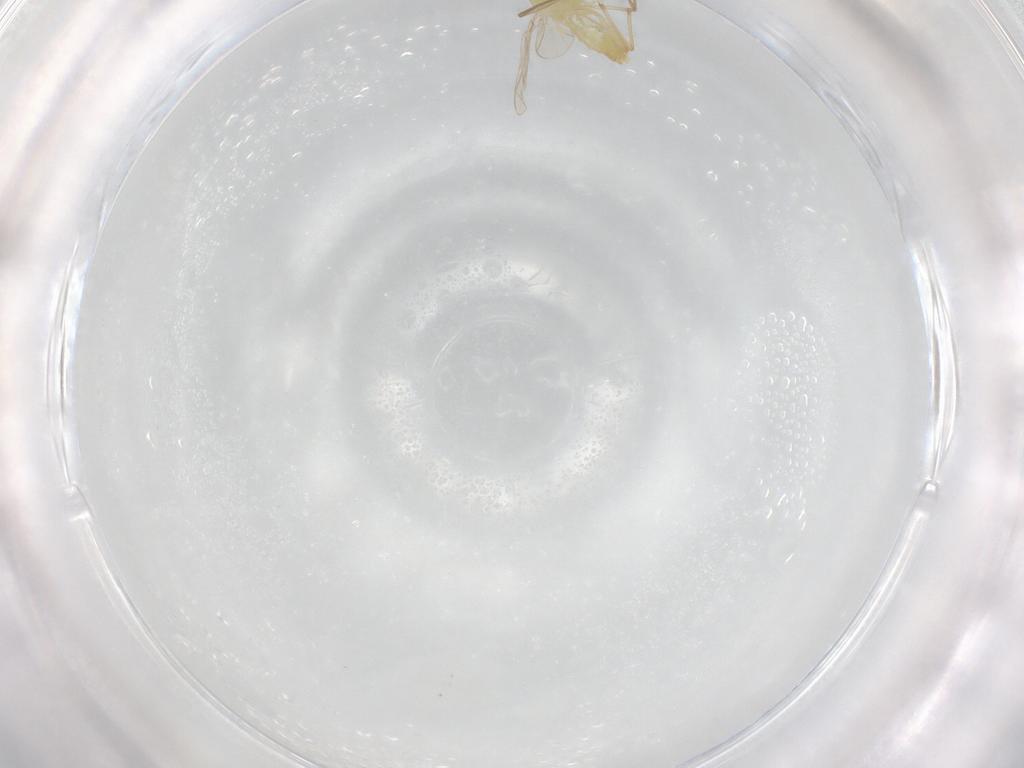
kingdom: Animalia
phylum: Arthropoda
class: Insecta
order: Diptera
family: Chironomidae
